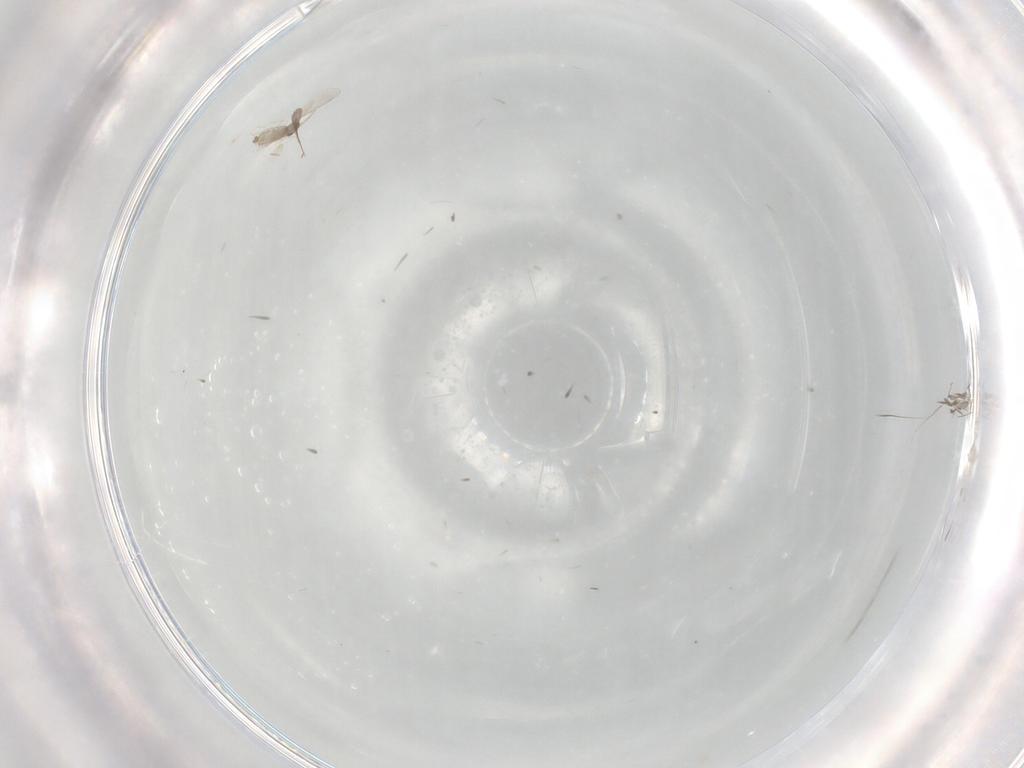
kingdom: Animalia
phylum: Arthropoda
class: Insecta
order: Diptera
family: Cecidomyiidae
